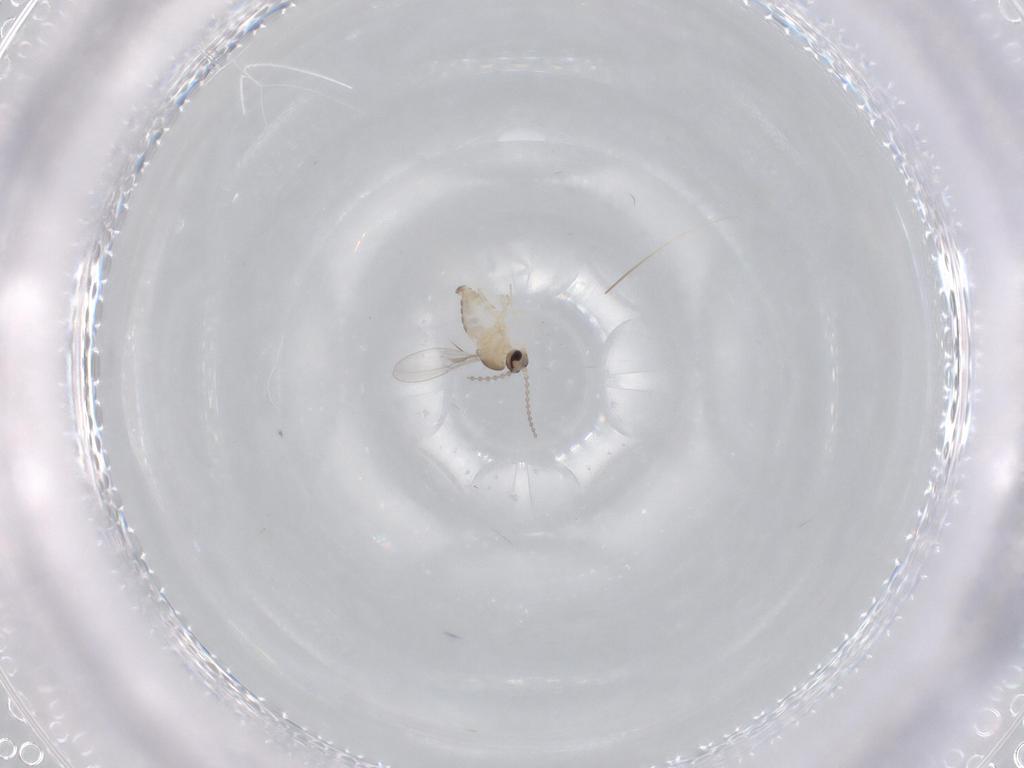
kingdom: Animalia
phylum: Arthropoda
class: Insecta
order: Diptera
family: Cecidomyiidae
